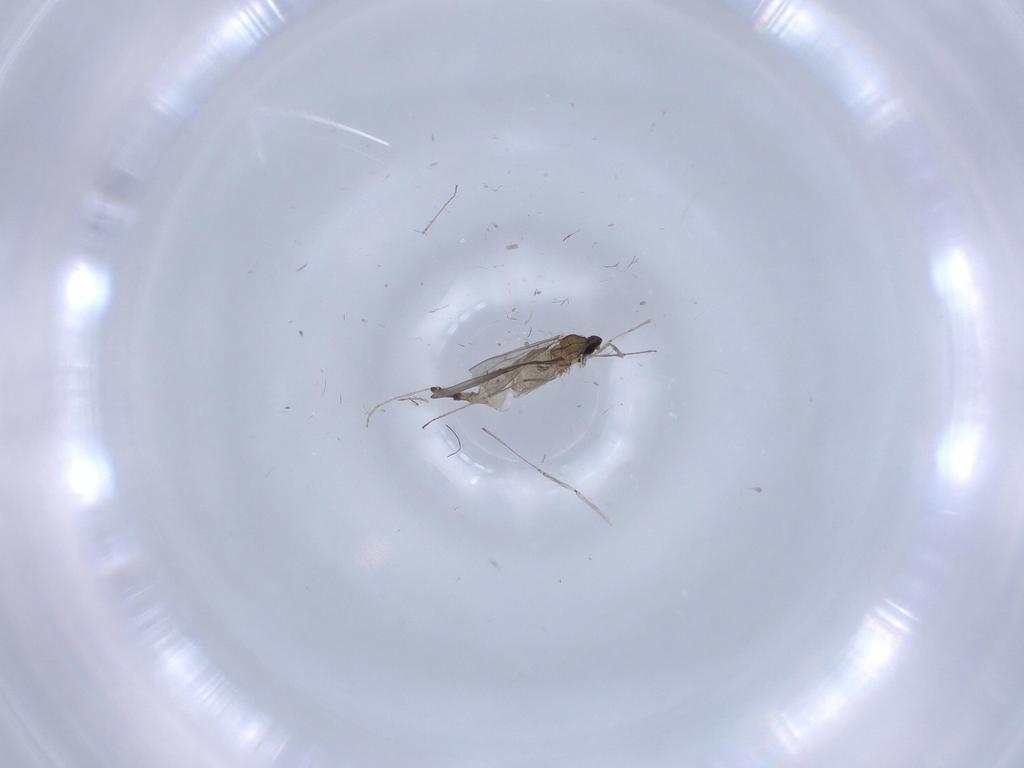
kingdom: Animalia
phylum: Arthropoda
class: Insecta
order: Diptera
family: Cecidomyiidae
